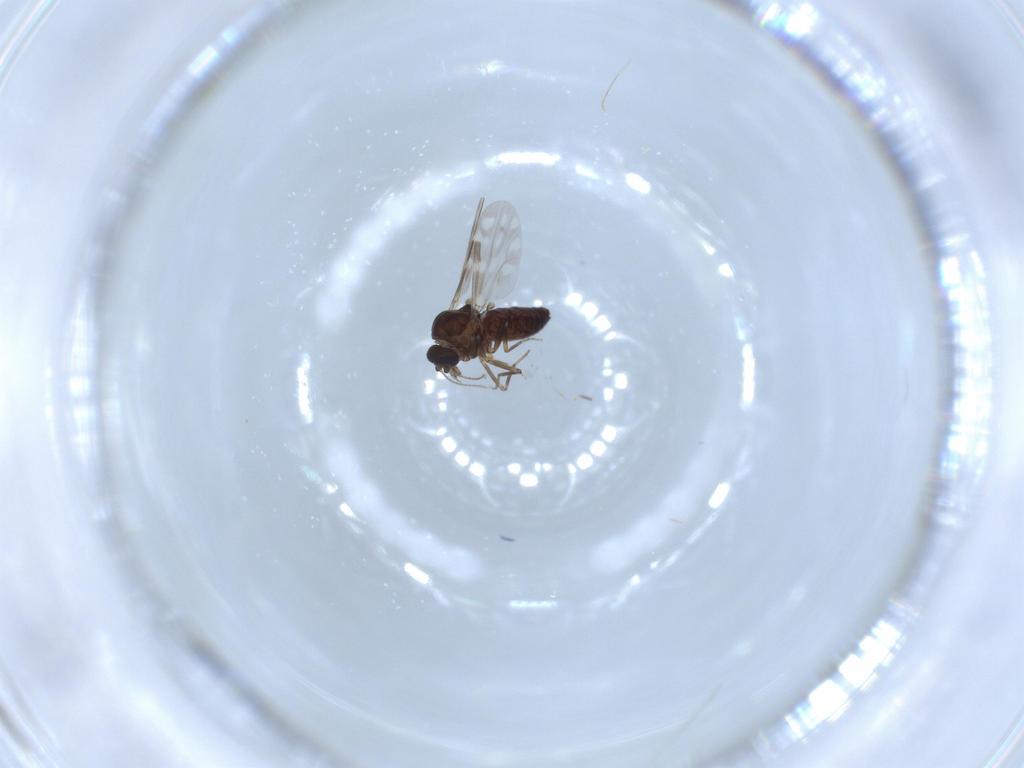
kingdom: Animalia
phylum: Arthropoda
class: Insecta
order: Diptera
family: Ceratopogonidae
